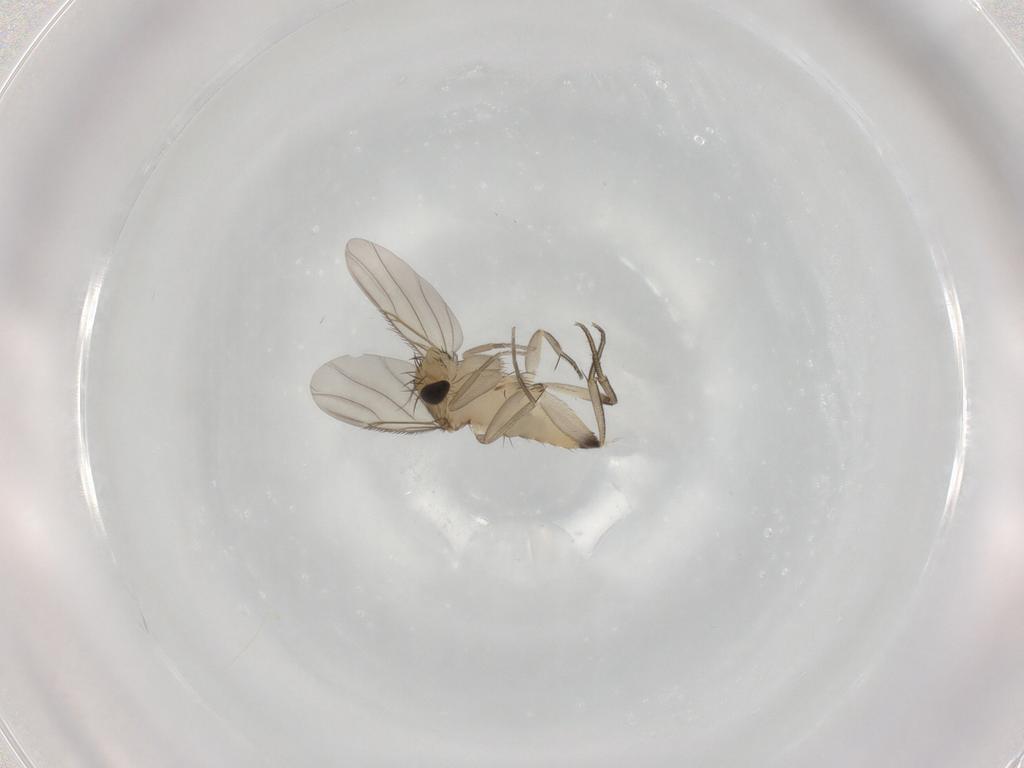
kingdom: Animalia
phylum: Arthropoda
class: Insecta
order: Diptera
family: Phoridae
